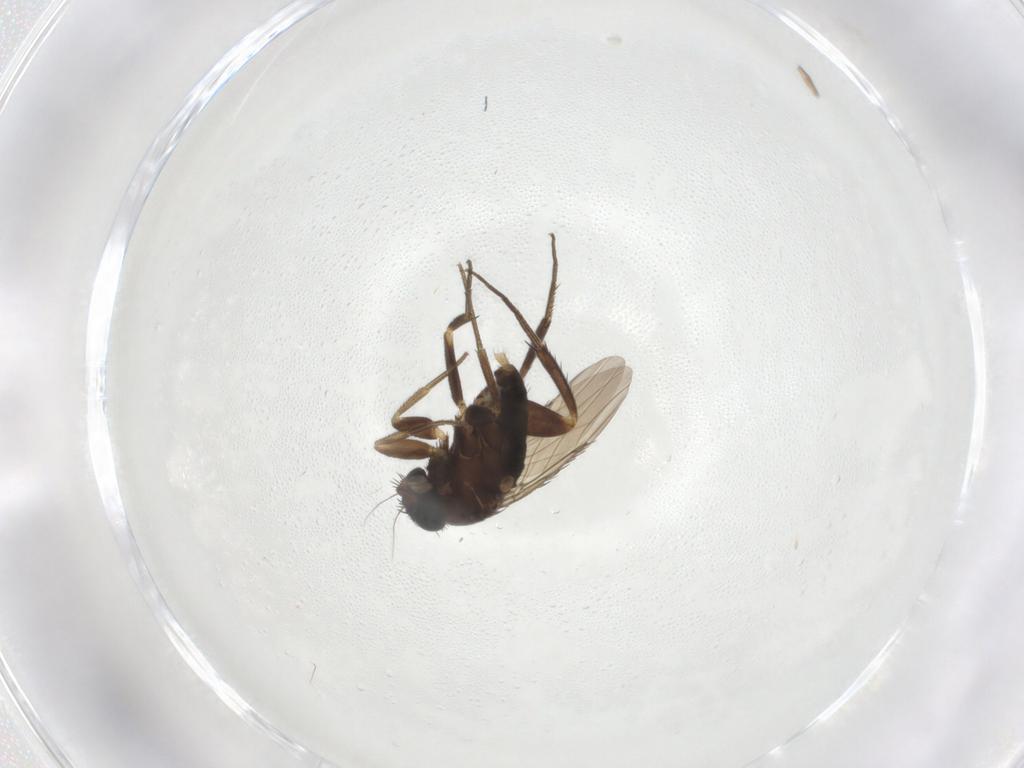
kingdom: Animalia
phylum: Arthropoda
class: Insecta
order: Diptera
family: Phoridae
